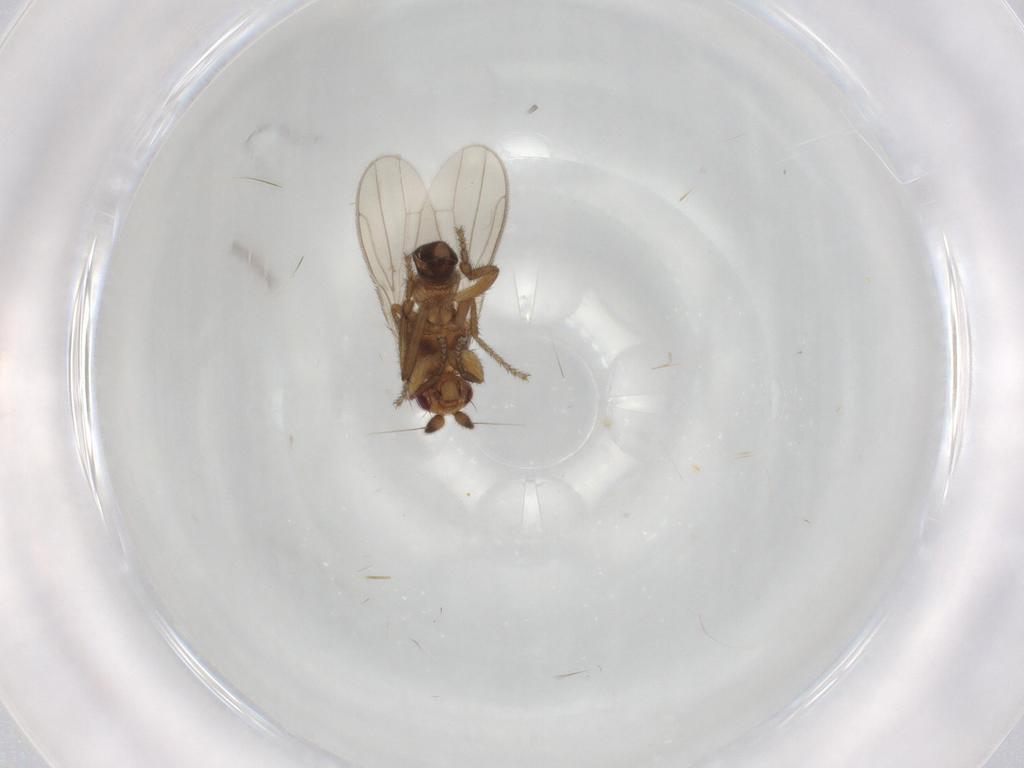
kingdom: Animalia
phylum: Arthropoda
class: Insecta
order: Diptera
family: Sphaeroceridae
